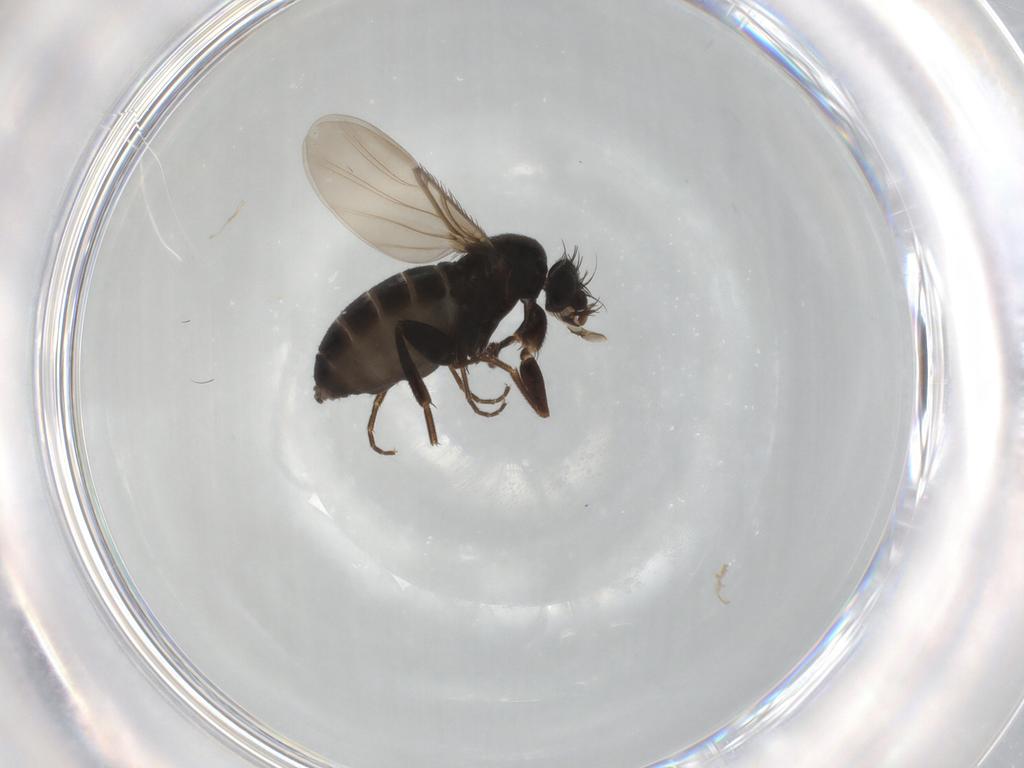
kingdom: Animalia
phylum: Arthropoda
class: Insecta
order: Diptera
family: Phoridae
